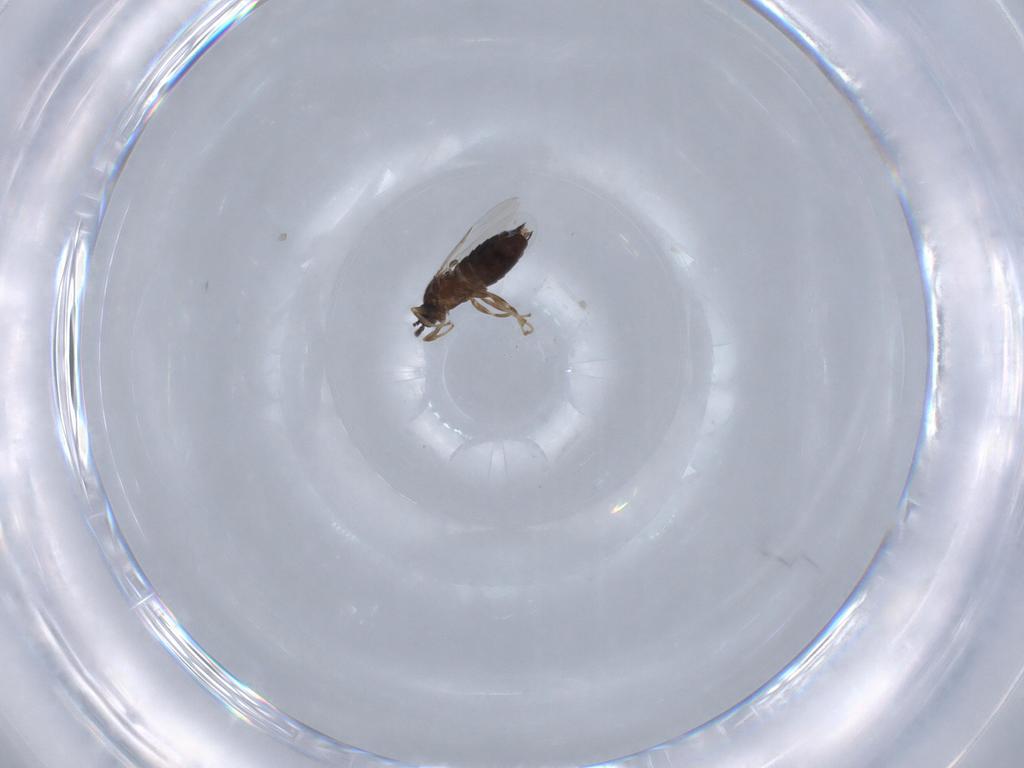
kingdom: Animalia
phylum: Arthropoda
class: Insecta
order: Diptera
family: Scatopsidae
